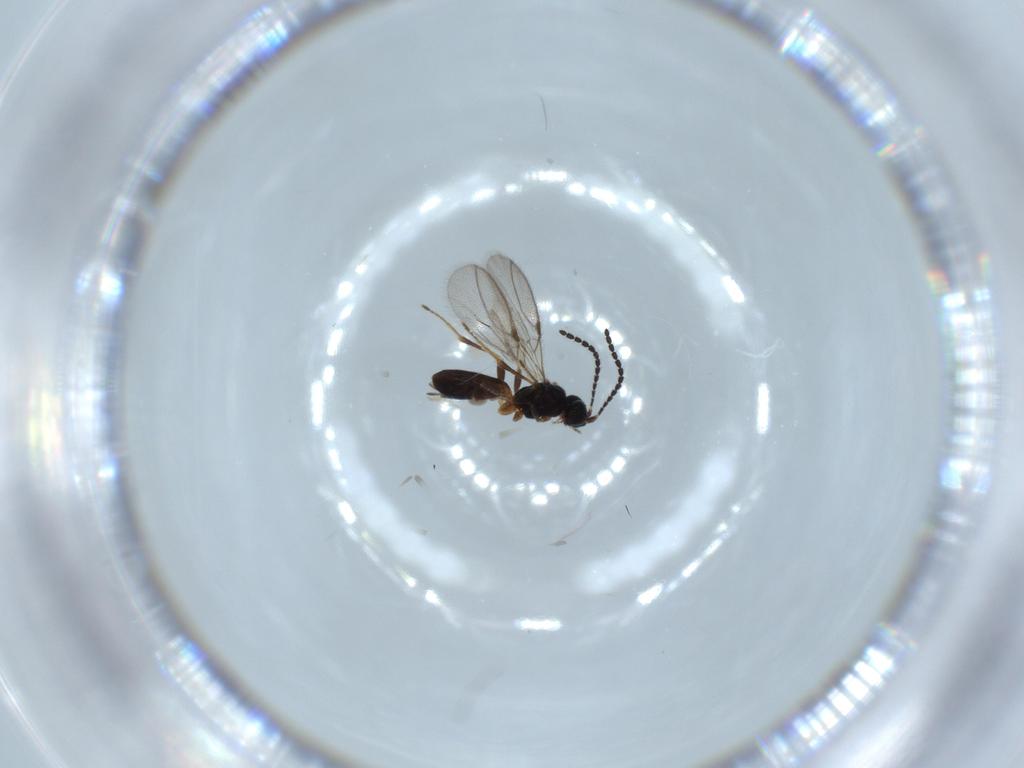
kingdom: Animalia
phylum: Arthropoda
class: Insecta
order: Hymenoptera
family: Braconidae
